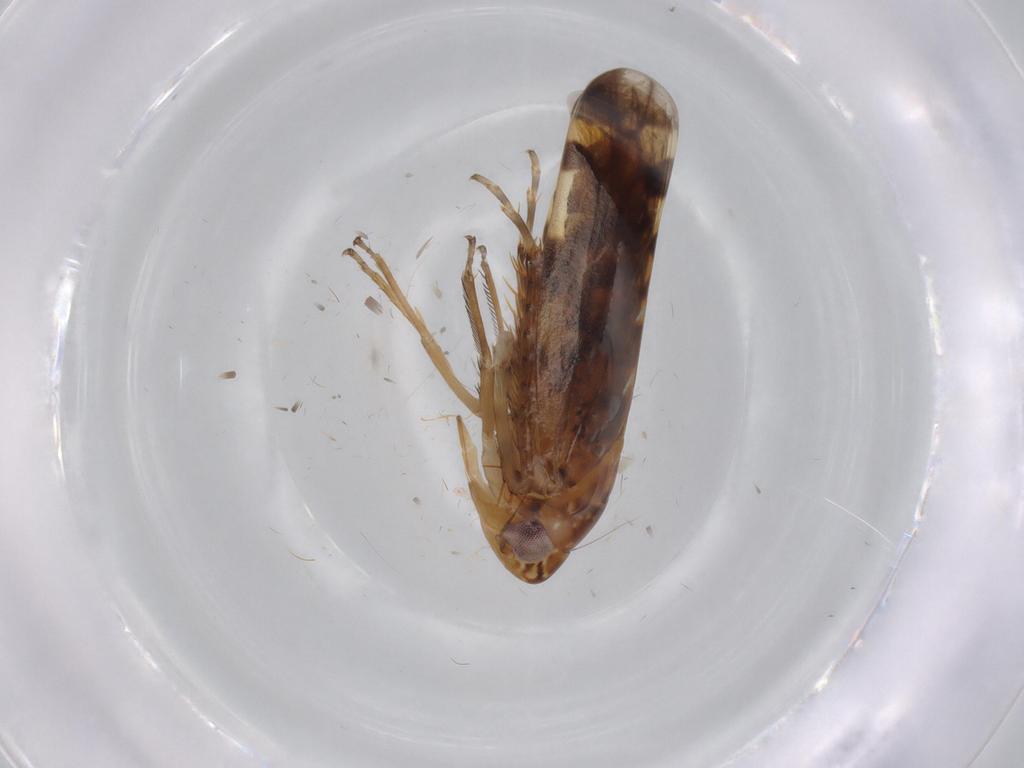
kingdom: Animalia
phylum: Arthropoda
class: Insecta
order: Hemiptera
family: Cicadellidae
